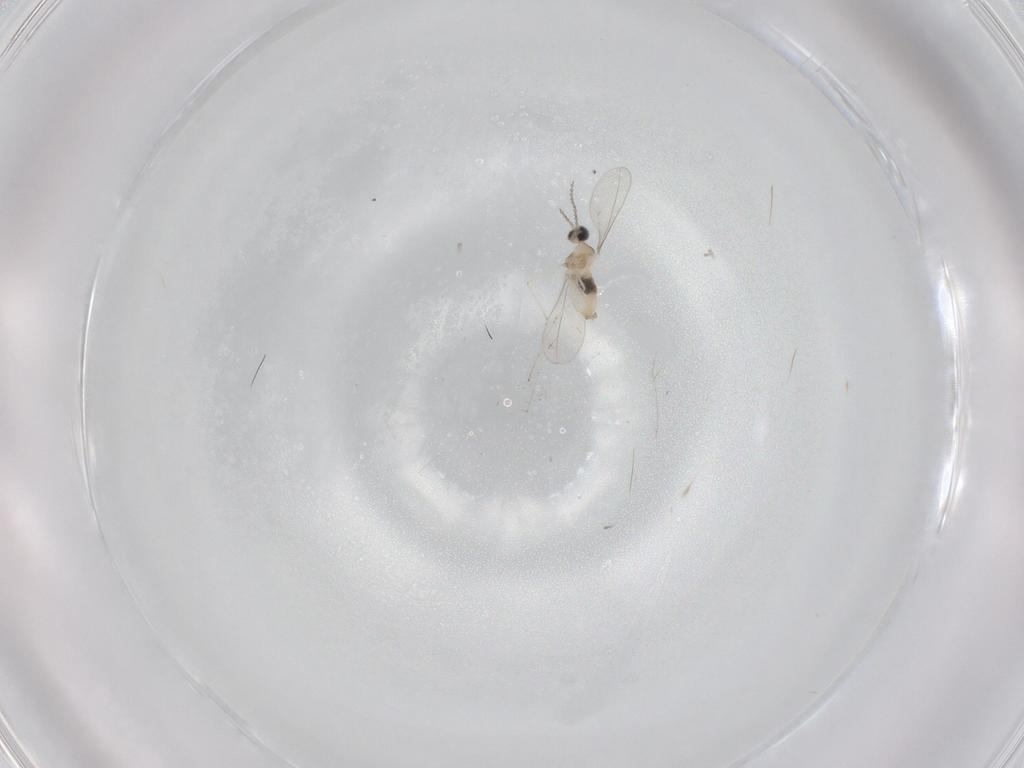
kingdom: Animalia
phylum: Arthropoda
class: Insecta
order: Diptera
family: Cecidomyiidae
